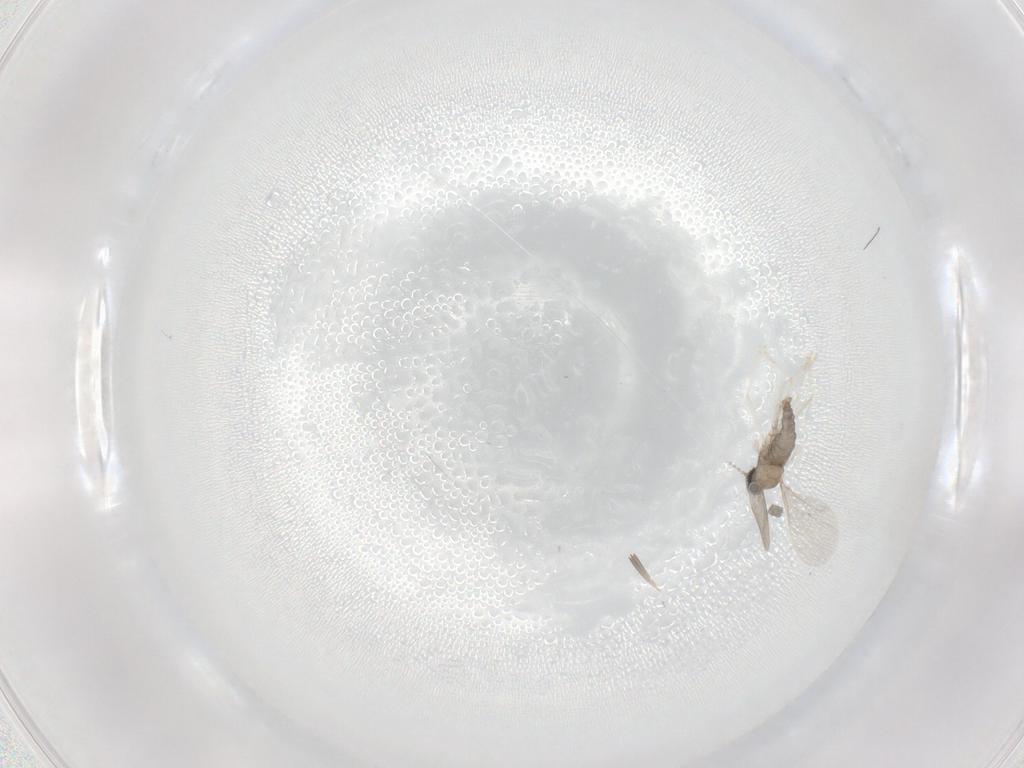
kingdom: Animalia
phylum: Arthropoda
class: Insecta
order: Diptera
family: Cecidomyiidae
